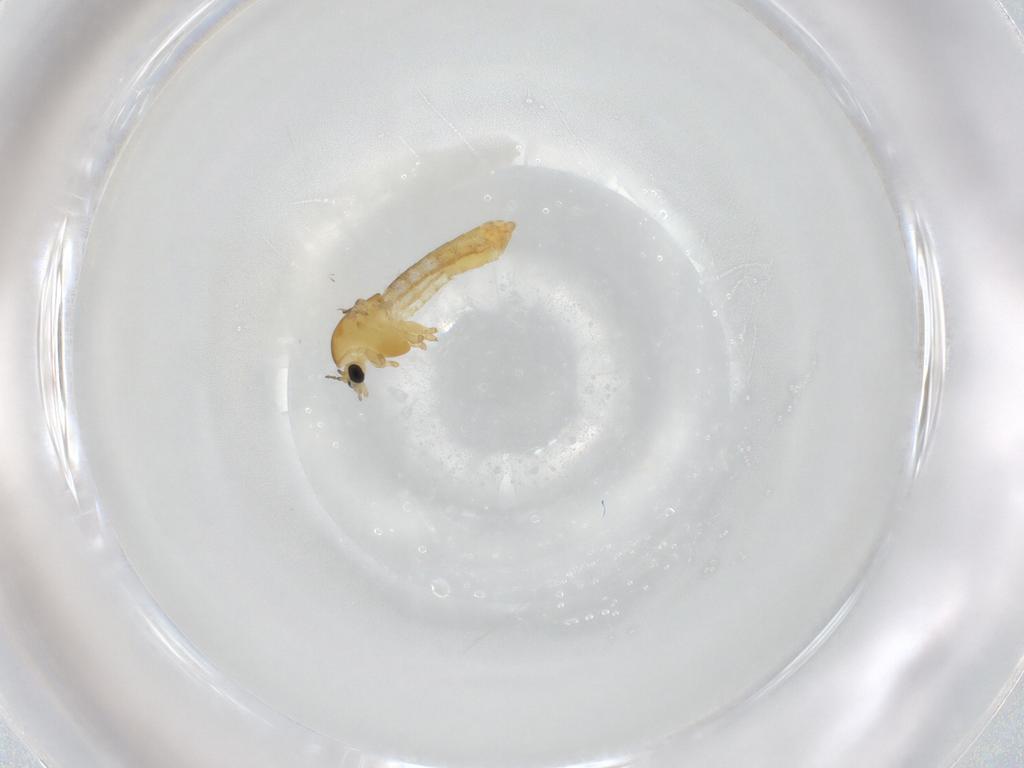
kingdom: Animalia
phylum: Arthropoda
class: Insecta
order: Diptera
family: Chironomidae
